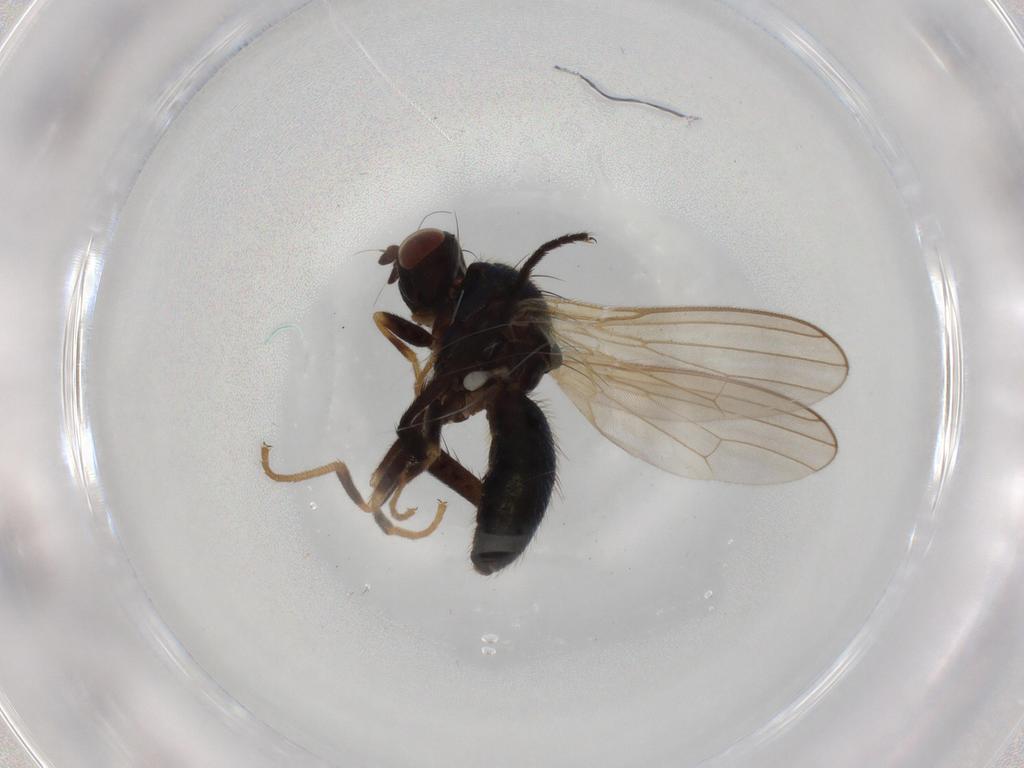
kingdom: Animalia
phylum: Arthropoda
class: Insecta
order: Diptera
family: Anthomyiidae
